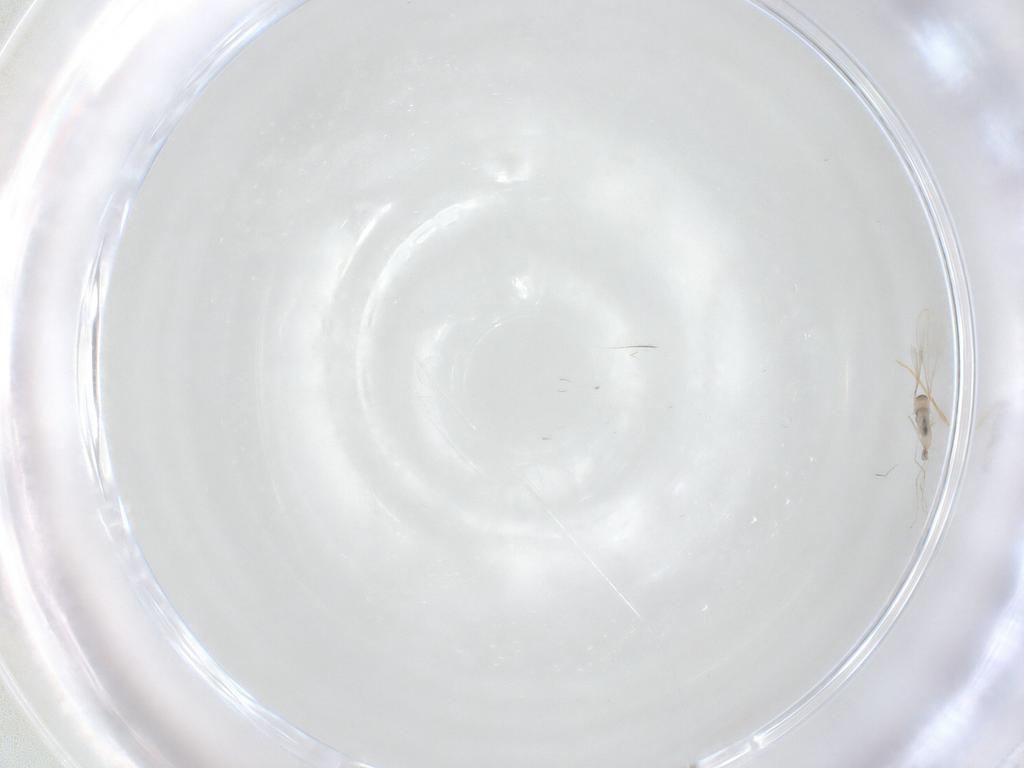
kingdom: Animalia
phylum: Arthropoda
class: Insecta
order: Diptera
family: Cecidomyiidae
